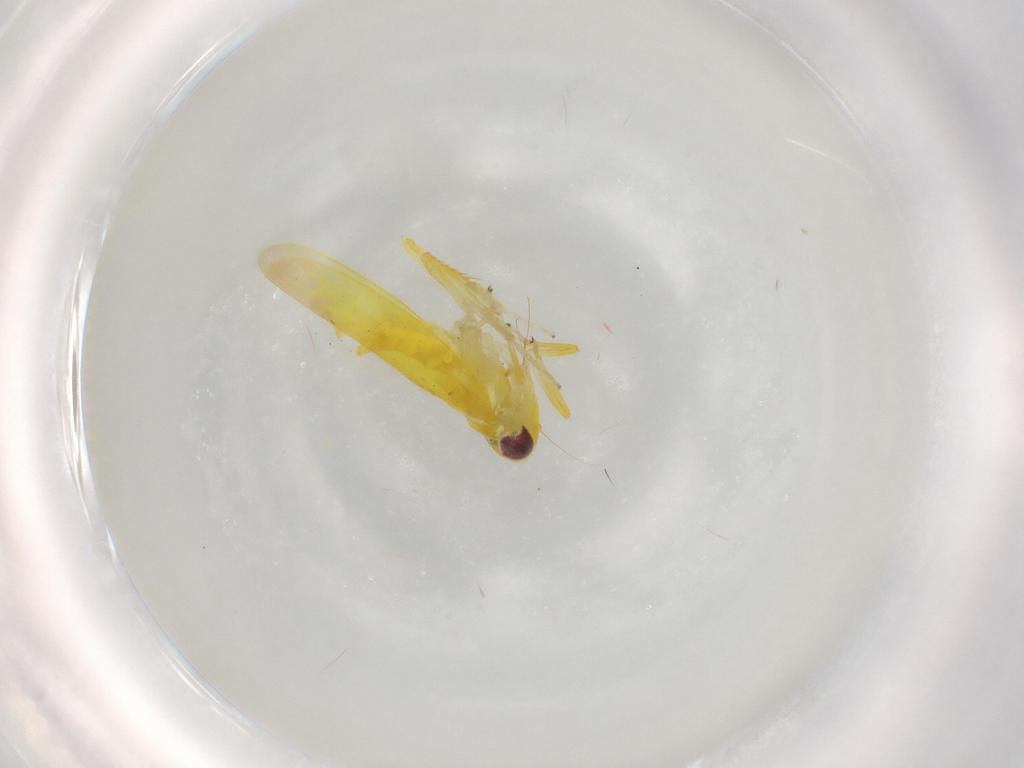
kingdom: Animalia
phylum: Arthropoda
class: Insecta
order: Hemiptera
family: Cicadellidae
